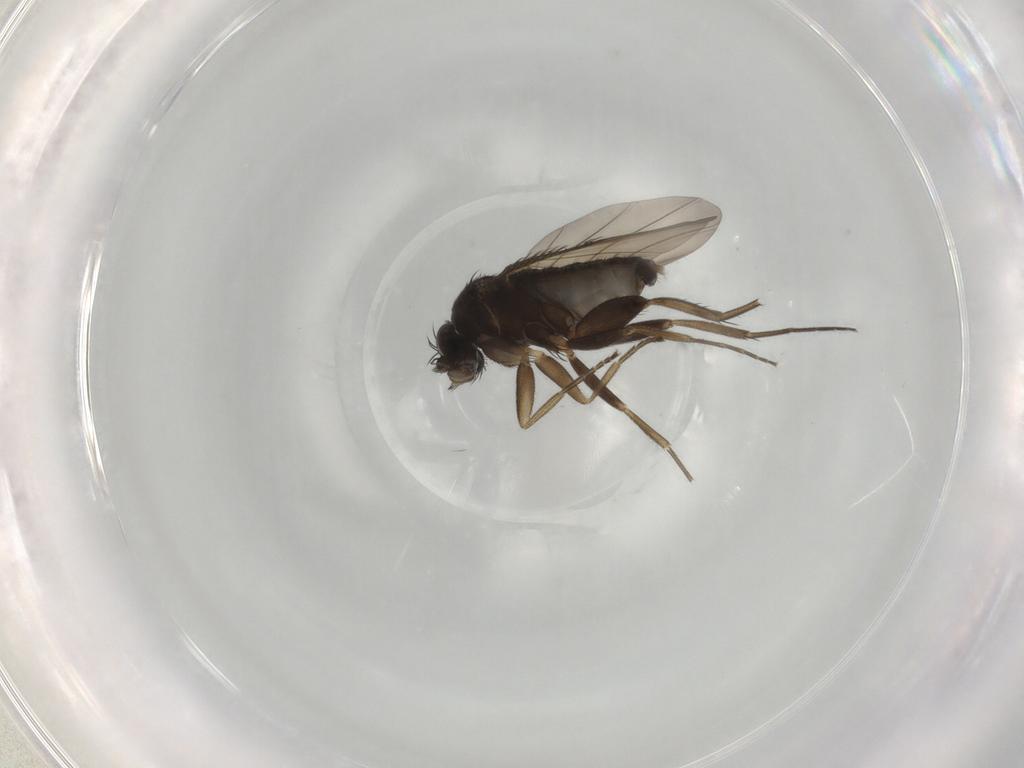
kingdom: Animalia
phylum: Arthropoda
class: Insecta
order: Diptera
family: Phoridae
